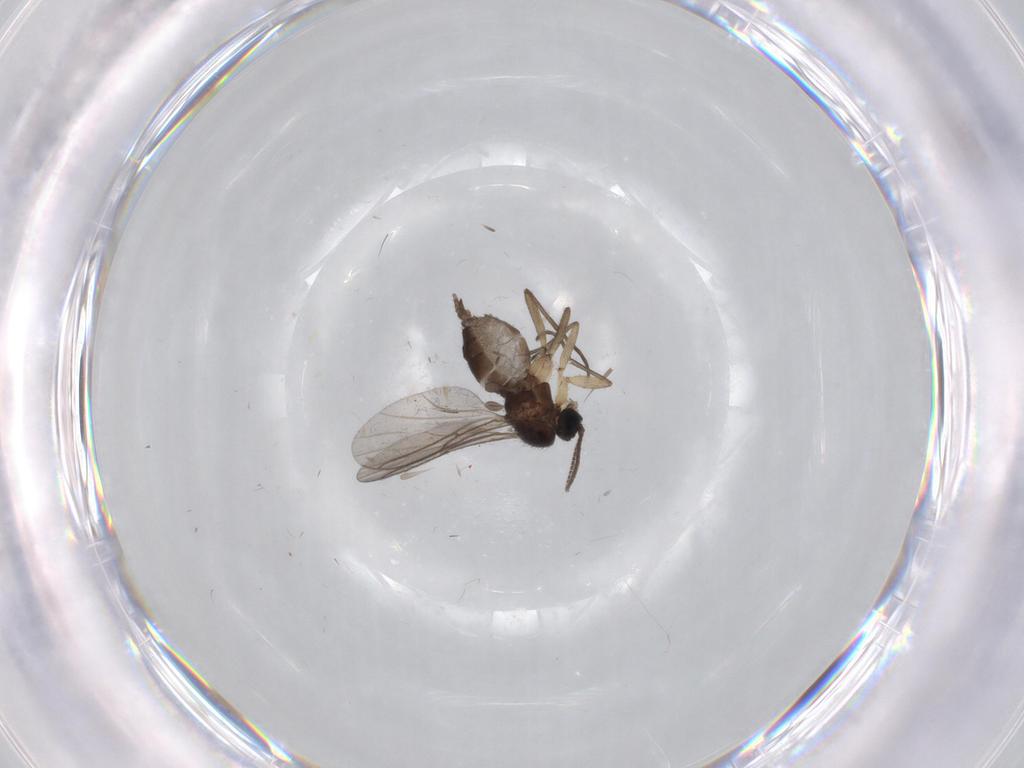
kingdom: Animalia
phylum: Arthropoda
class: Insecta
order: Diptera
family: Sciaridae
